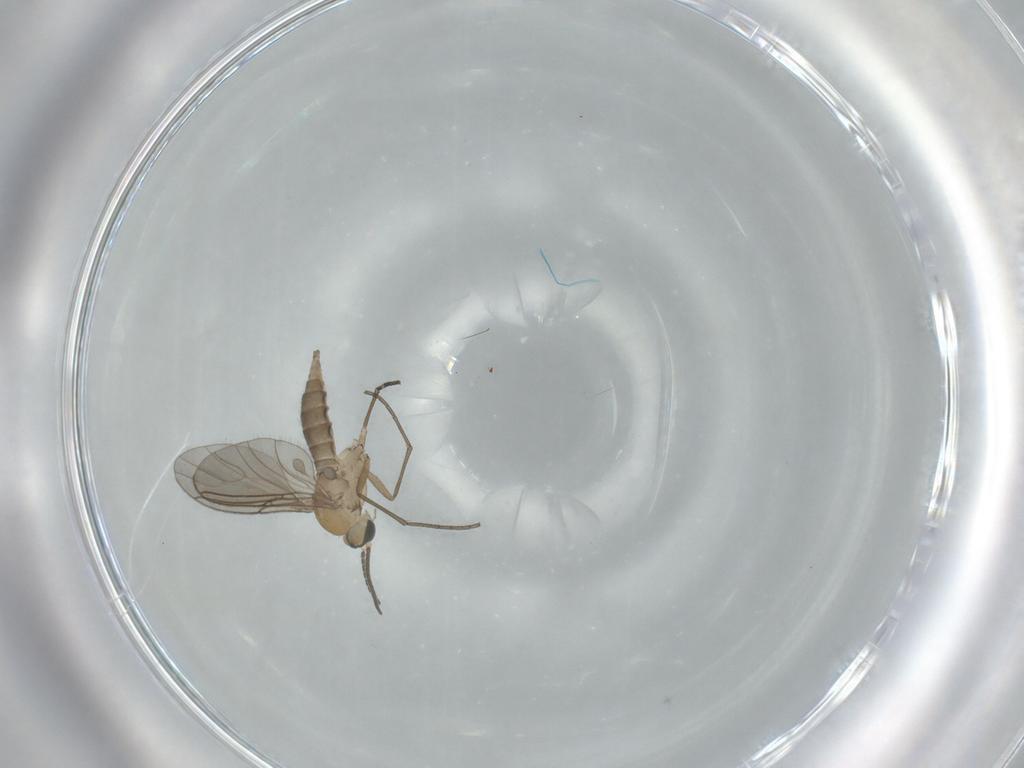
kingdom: Animalia
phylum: Arthropoda
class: Insecta
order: Diptera
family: Sciaridae
